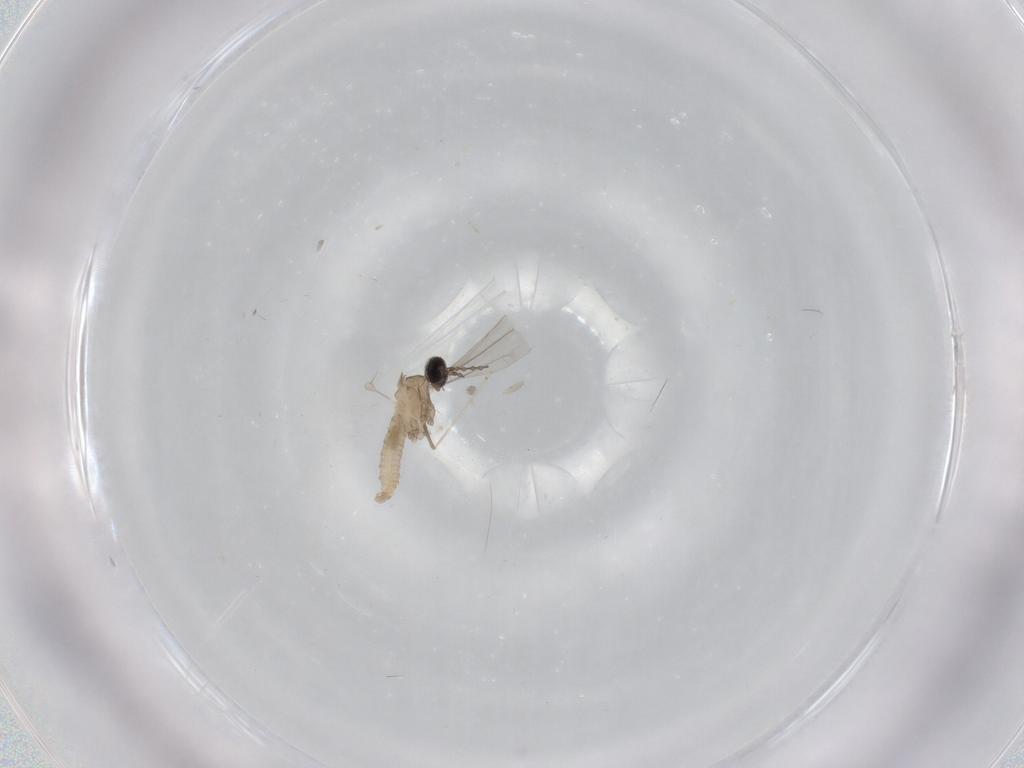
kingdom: Animalia
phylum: Arthropoda
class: Insecta
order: Diptera
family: Cecidomyiidae
